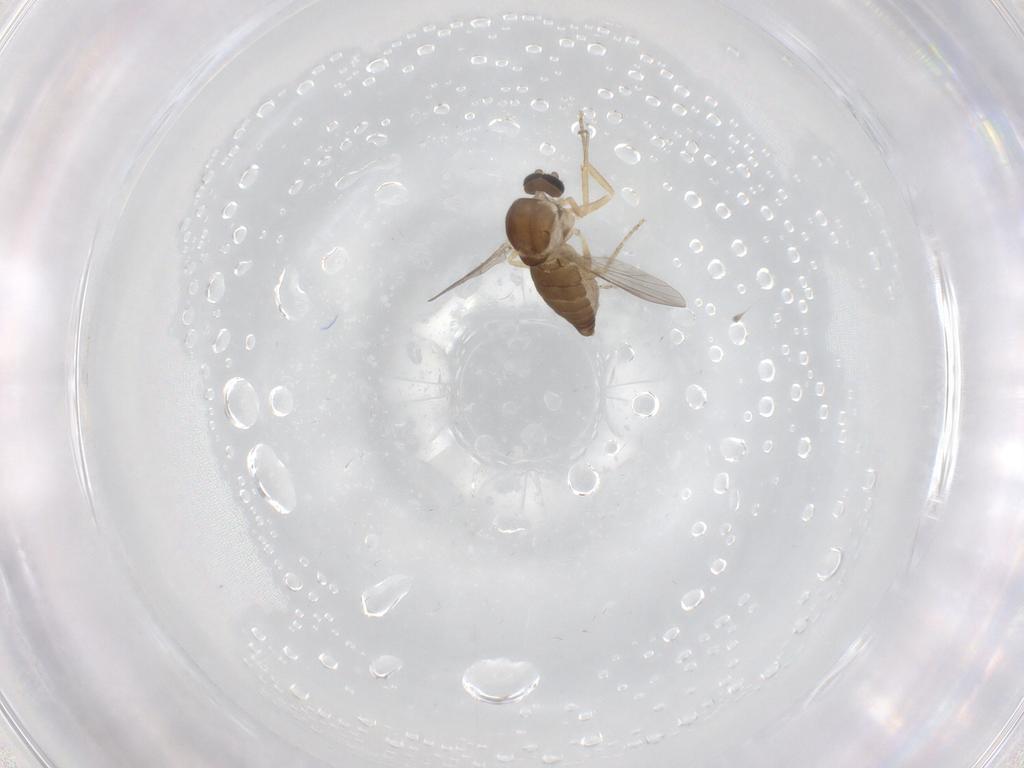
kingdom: Animalia
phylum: Arthropoda
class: Insecta
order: Diptera
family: Ceratopogonidae
